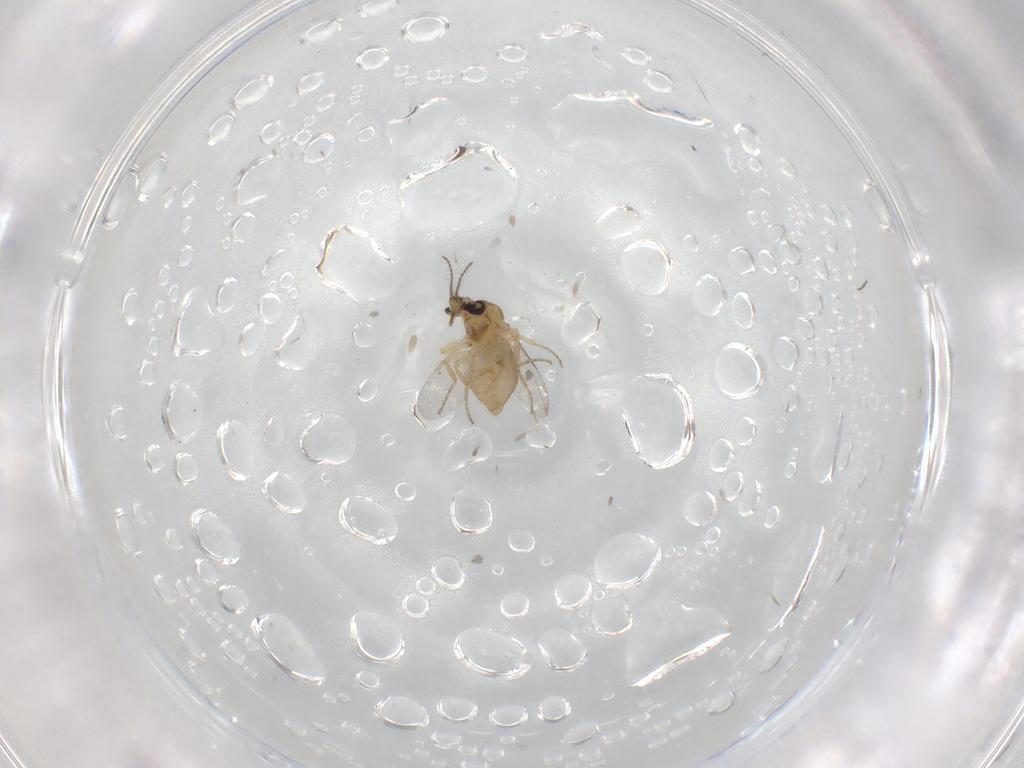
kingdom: Animalia
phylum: Arthropoda
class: Insecta
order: Diptera
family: Ceratopogonidae
